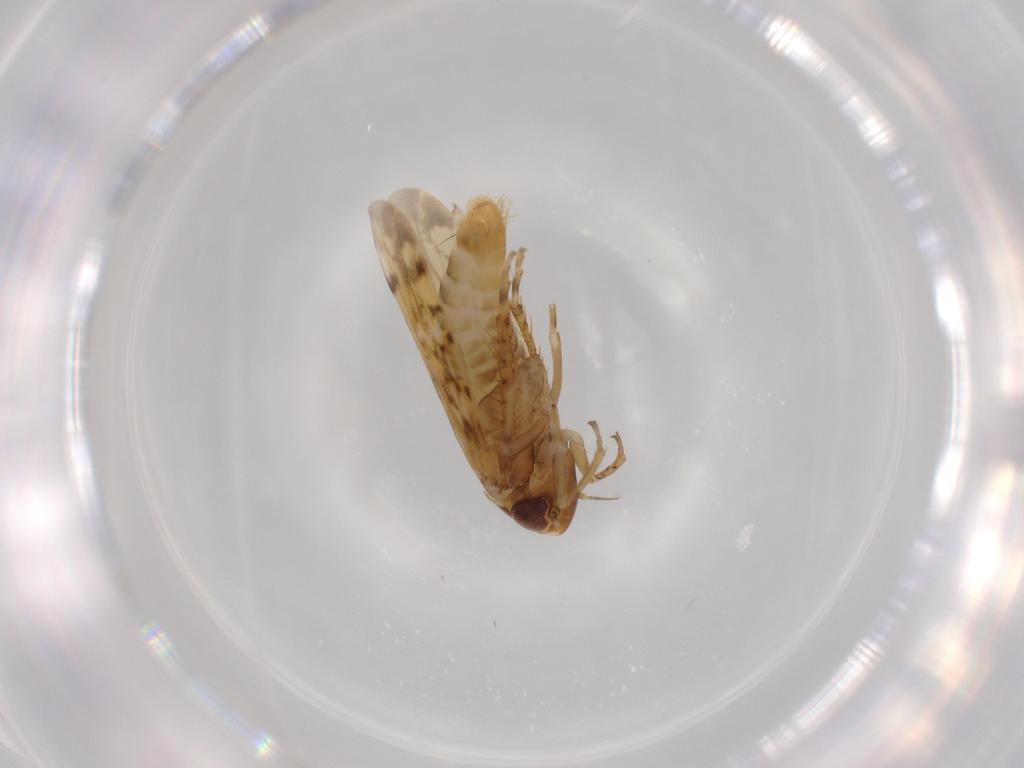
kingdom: Animalia
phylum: Arthropoda
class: Insecta
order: Hemiptera
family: Cicadellidae
